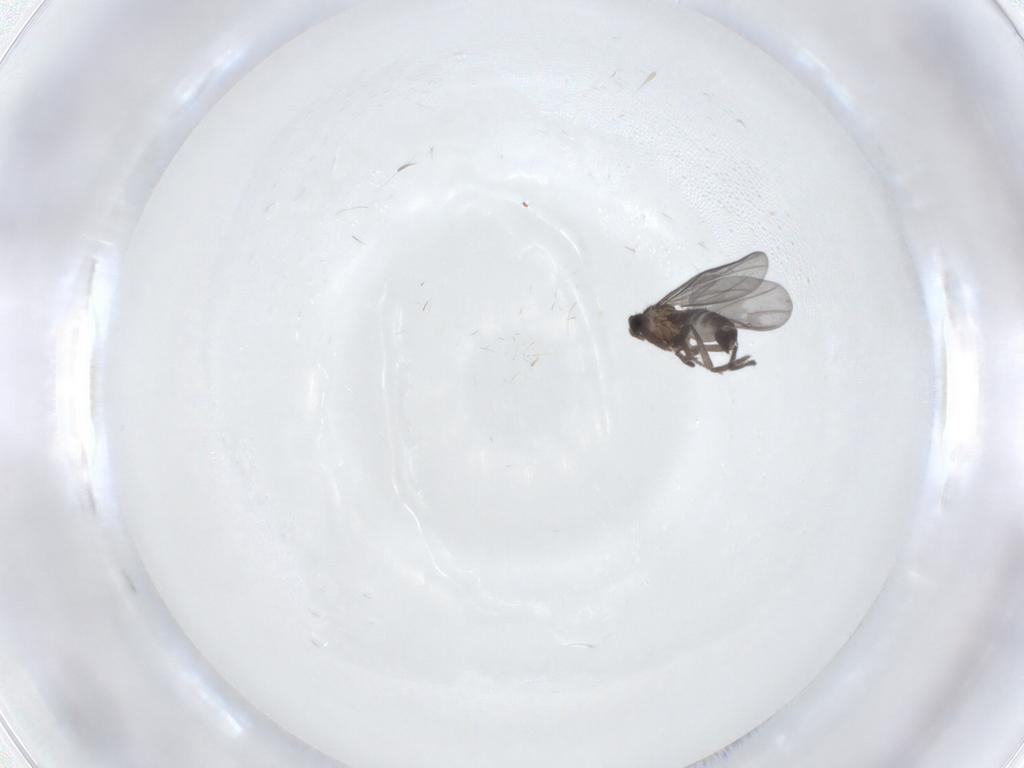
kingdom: Animalia
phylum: Arthropoda
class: Insecta
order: Diptera
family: Phoridae
